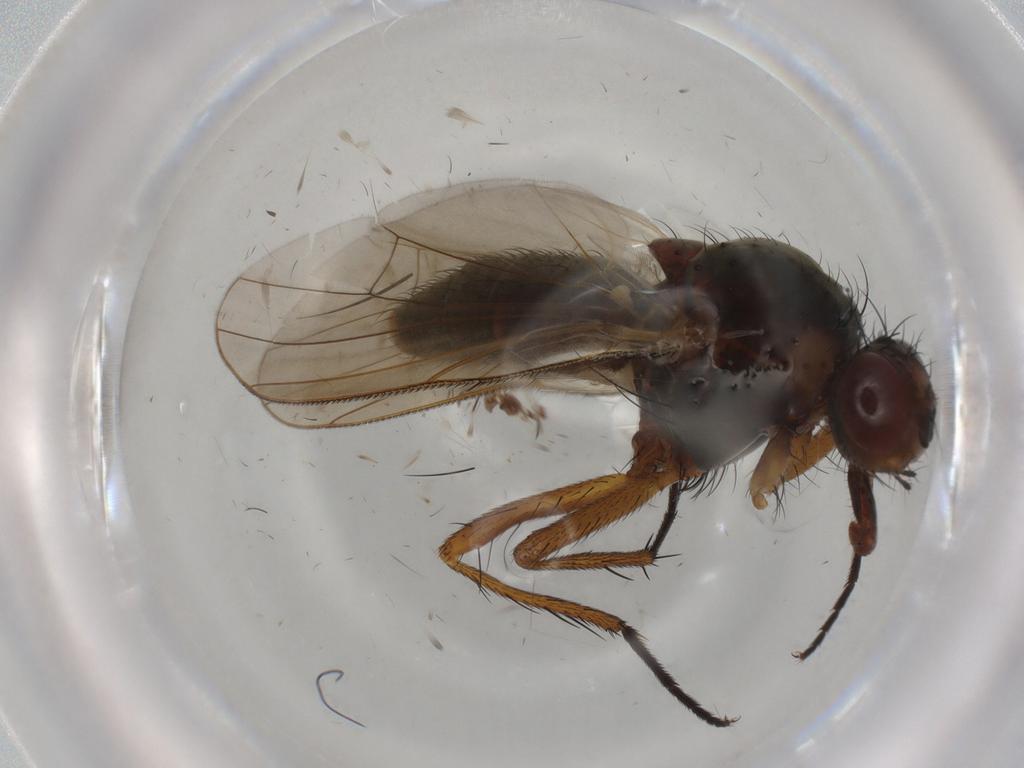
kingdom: Animalia
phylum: Arthropoda
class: Insecta
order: Diptera
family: Anthomyiidae
